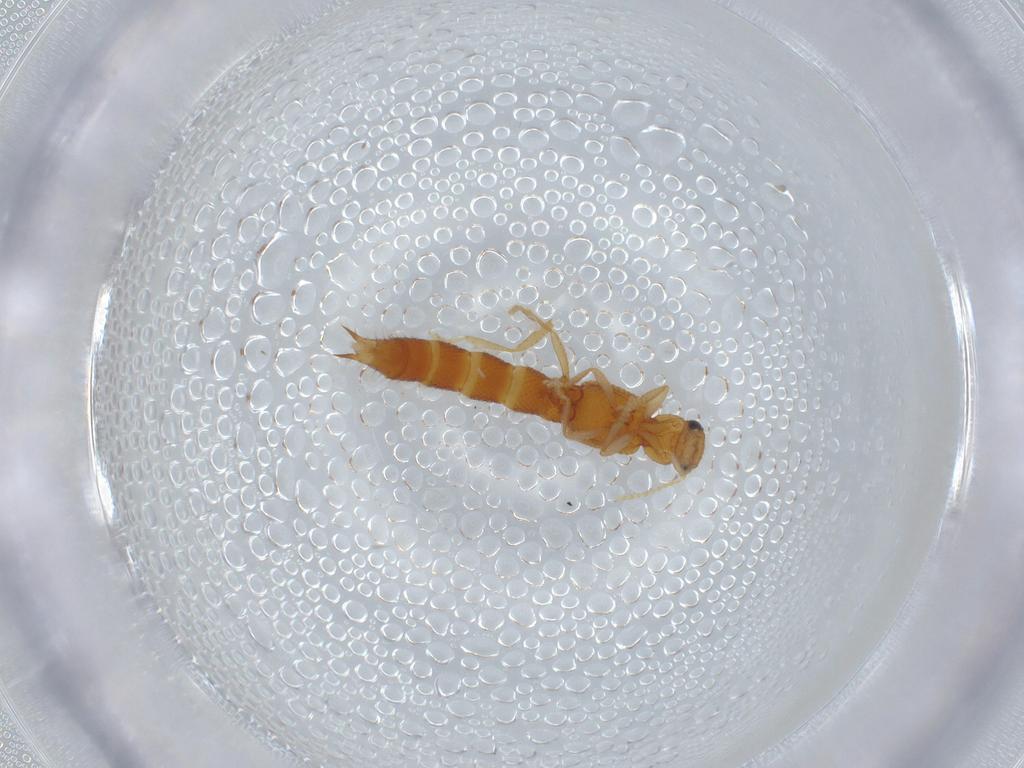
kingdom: Animalia
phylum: Arthropoda
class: Insecta
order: Coleoptera
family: Staphylinidae
